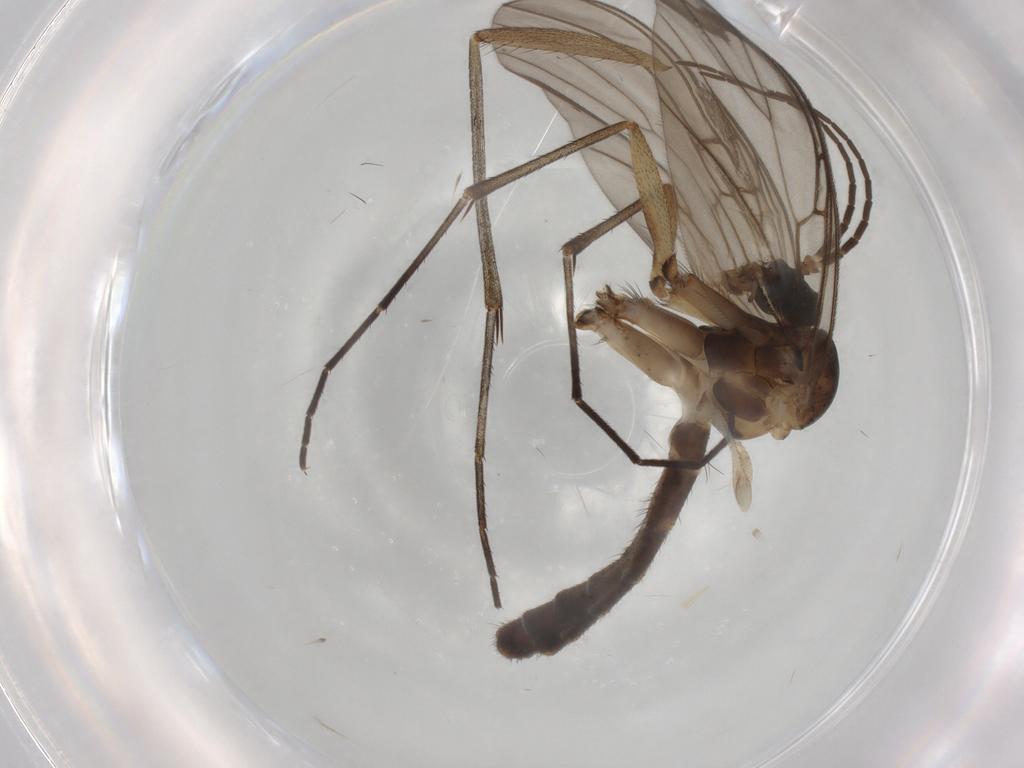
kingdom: Animalia
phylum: Arthropoda
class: Insecta
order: Diptera
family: Mycetophilidae
